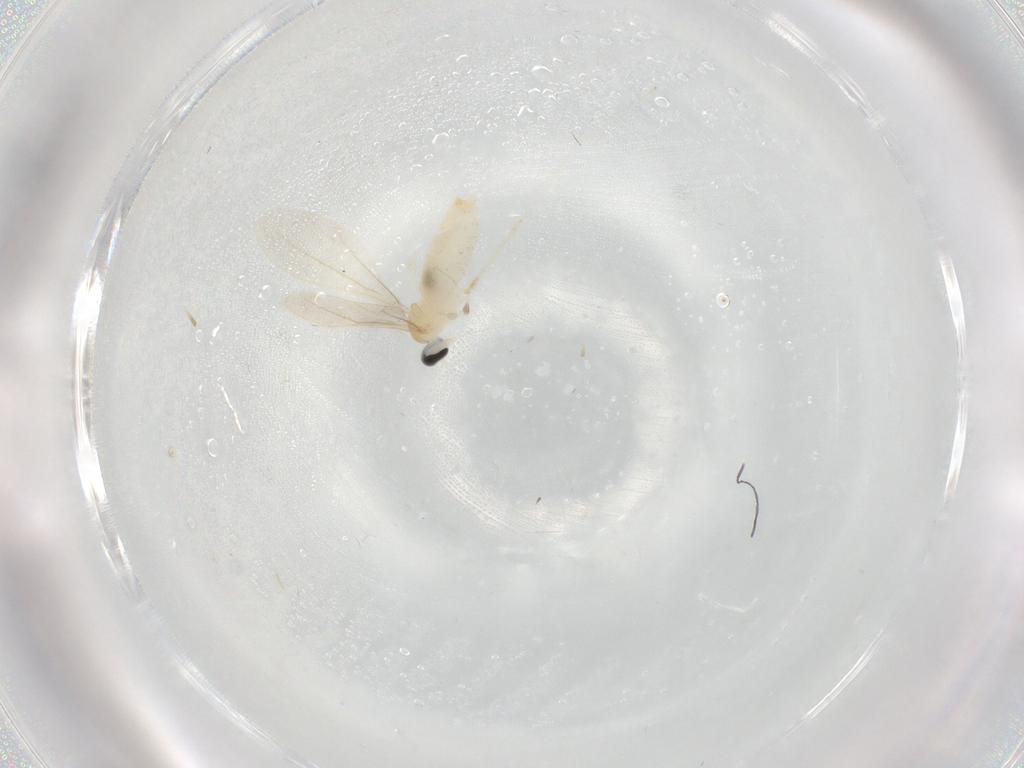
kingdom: Animalia
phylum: Arthropoda
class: Insecta
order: Diptera
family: Cecidomyiidae
